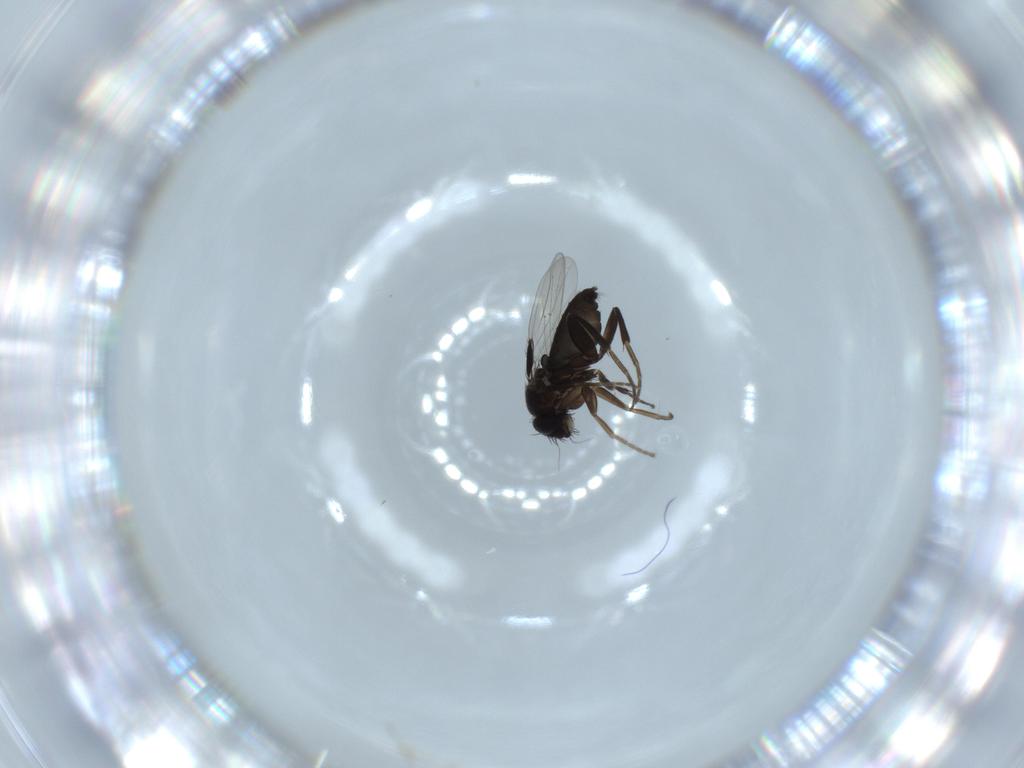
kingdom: Animalia
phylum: Arthropoda
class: Insecta
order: Diptera
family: Phoridae
